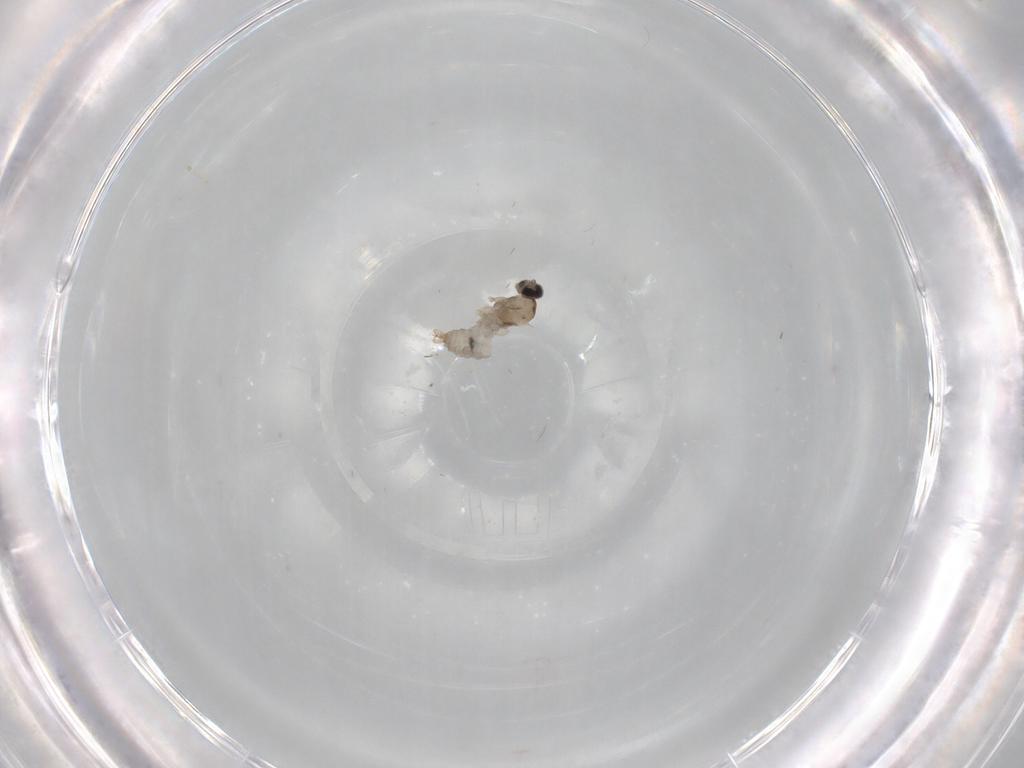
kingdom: Animalia
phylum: Arthropoda
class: Insecta
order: Diptera
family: Cecidomyiidae
